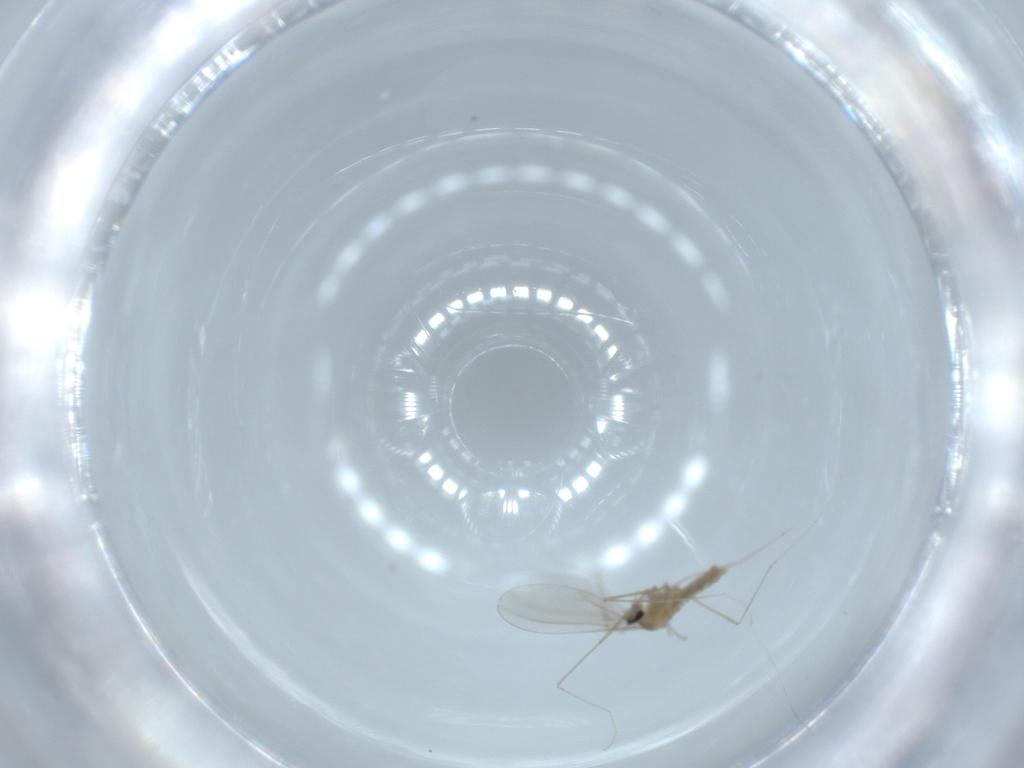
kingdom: Animalia
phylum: Arthropoda
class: Insecta
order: Diptera
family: Cecidomyiidae
